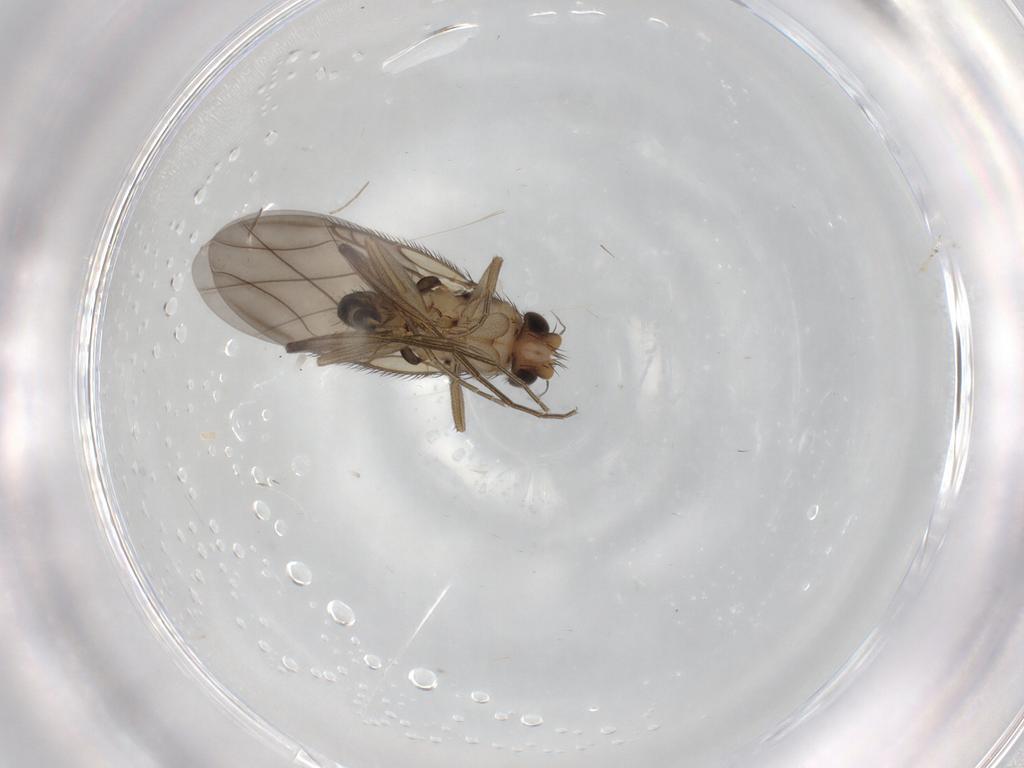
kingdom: Animalia
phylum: Arthropoda
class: Insecta
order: Diptera
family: Phoridae
